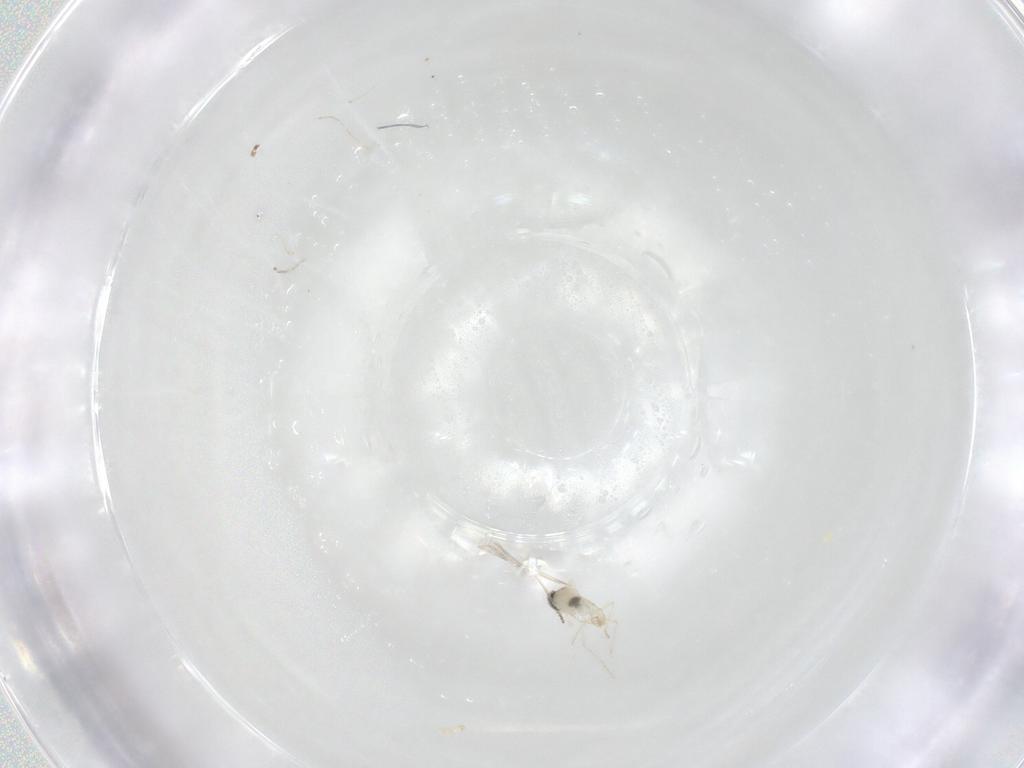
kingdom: Animalia
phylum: Arthropoda
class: Insecta
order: Diptera
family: Cecidomyiidae
